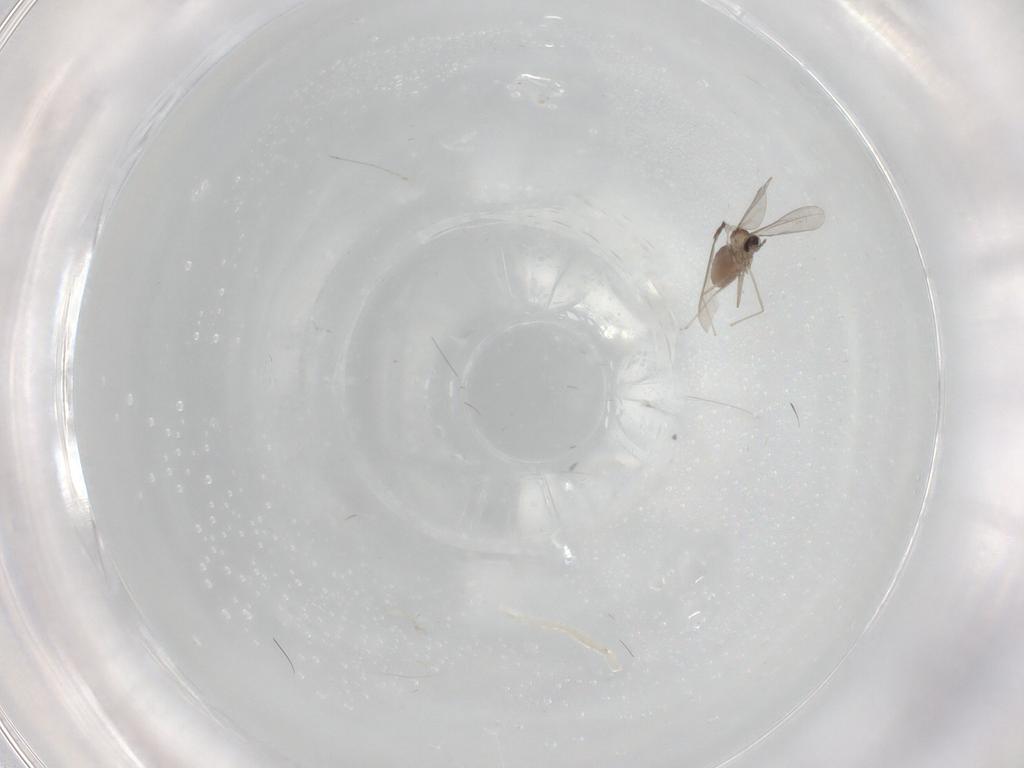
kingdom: Animalia
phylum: Arthropoda
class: Insecta
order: Diptera
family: Cecidomyiidae
